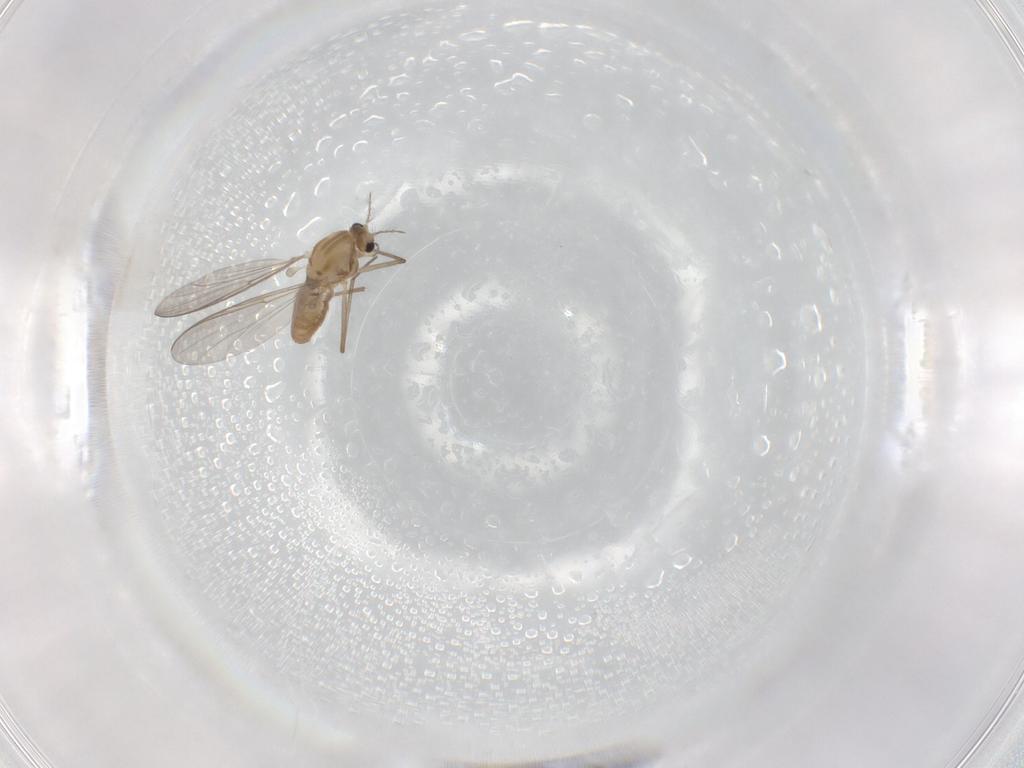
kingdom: Animalia
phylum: Arthropoda
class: Insecta
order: Diptera
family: Chironomidae
